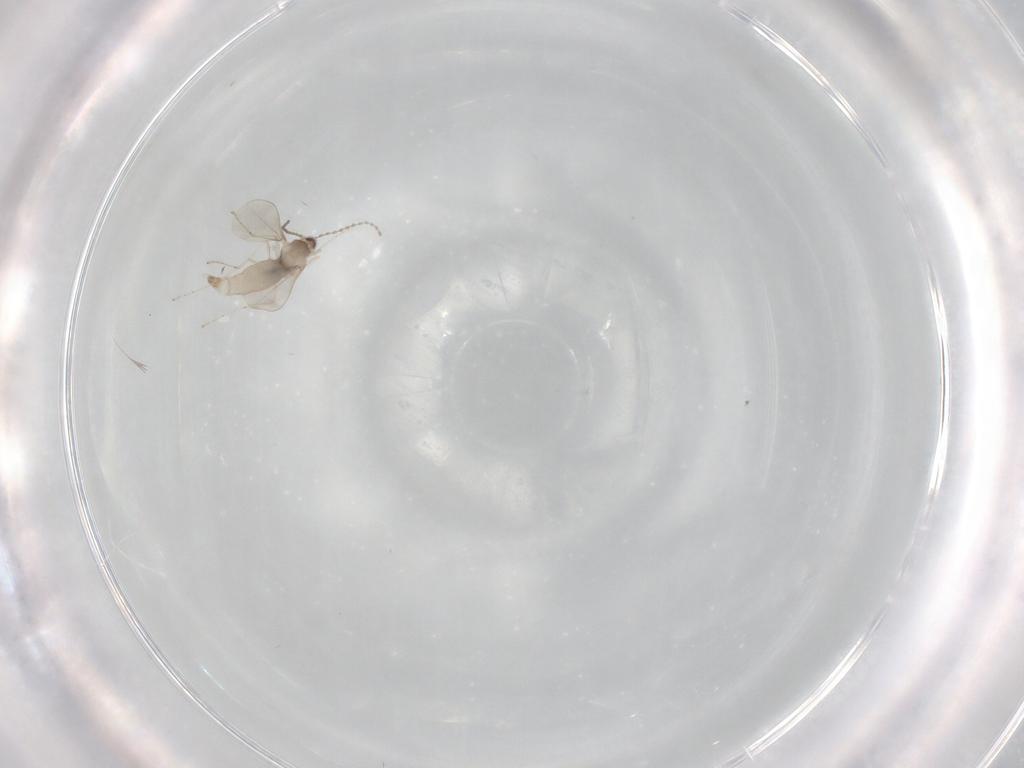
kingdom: Animalia
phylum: Arthropoda
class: Insecta
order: Diptera
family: Cecidomyiidae
